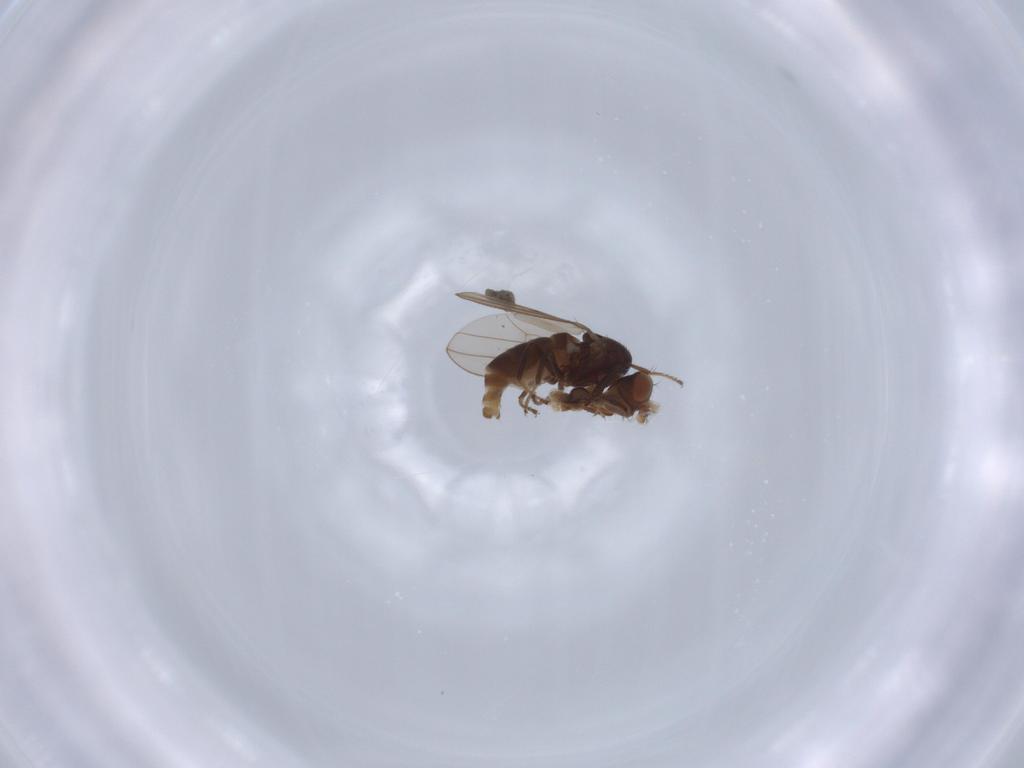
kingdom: Animalia
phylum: Arthropoda
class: Insecta
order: Diptera
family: Ephydridae
